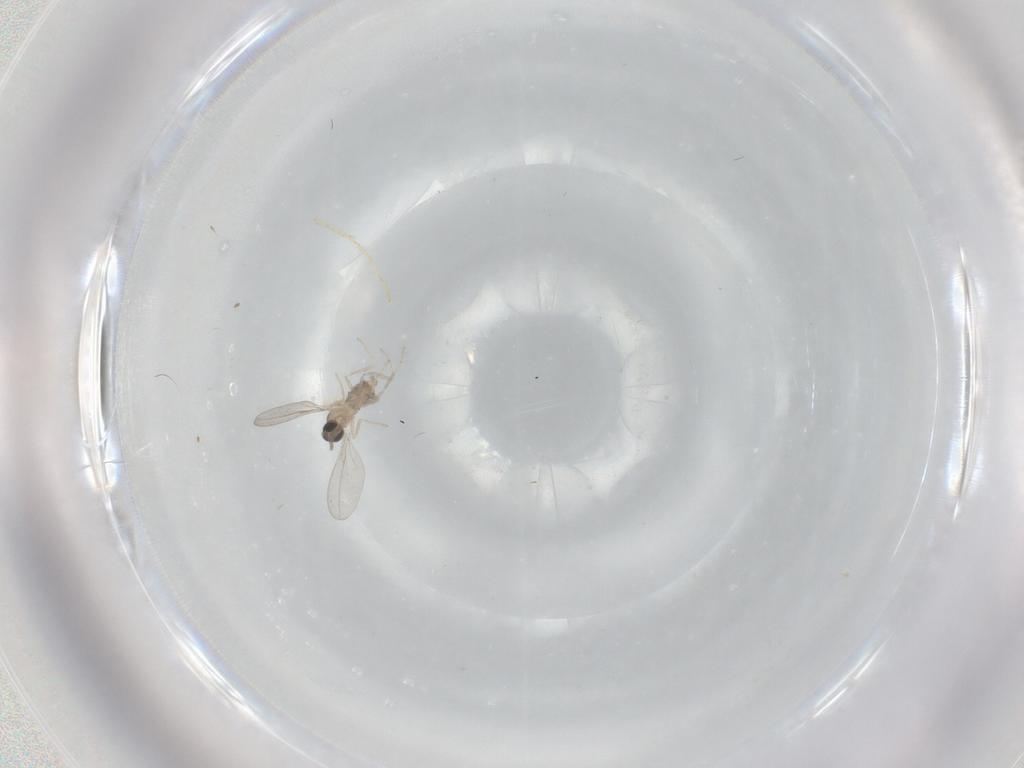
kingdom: Animalia
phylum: Arthropoda
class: Insecta
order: Diptera
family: Cecidomyiidae
